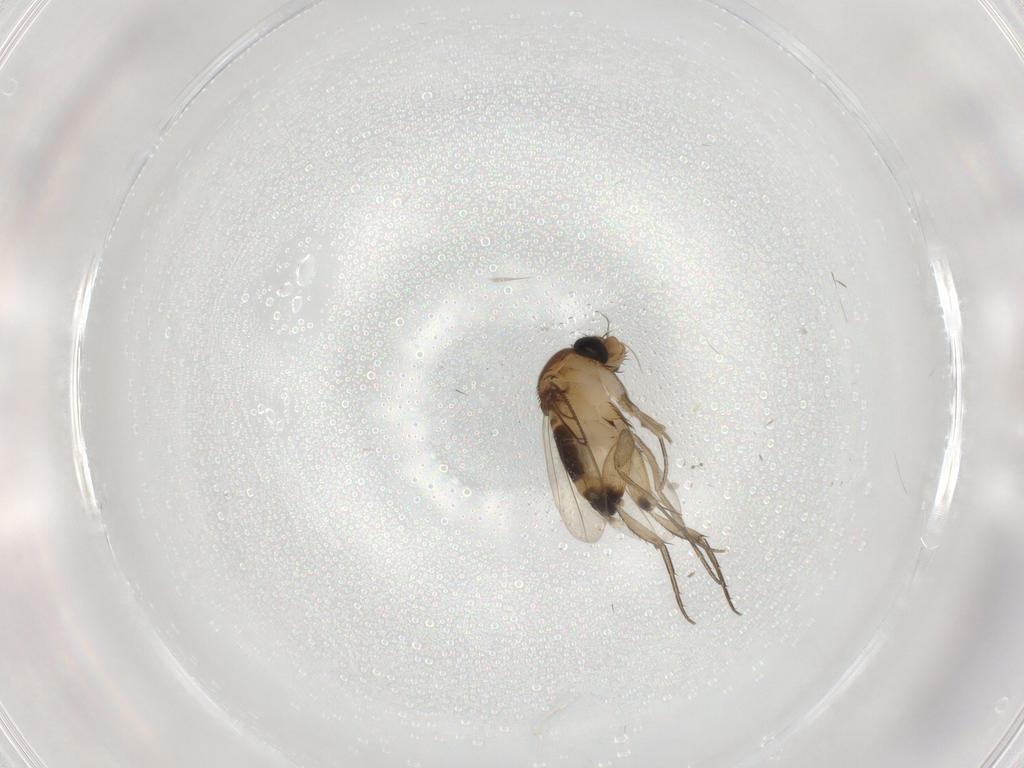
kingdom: Animalia
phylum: Arthropoda
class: Insecta
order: Diptera
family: Phoridae
